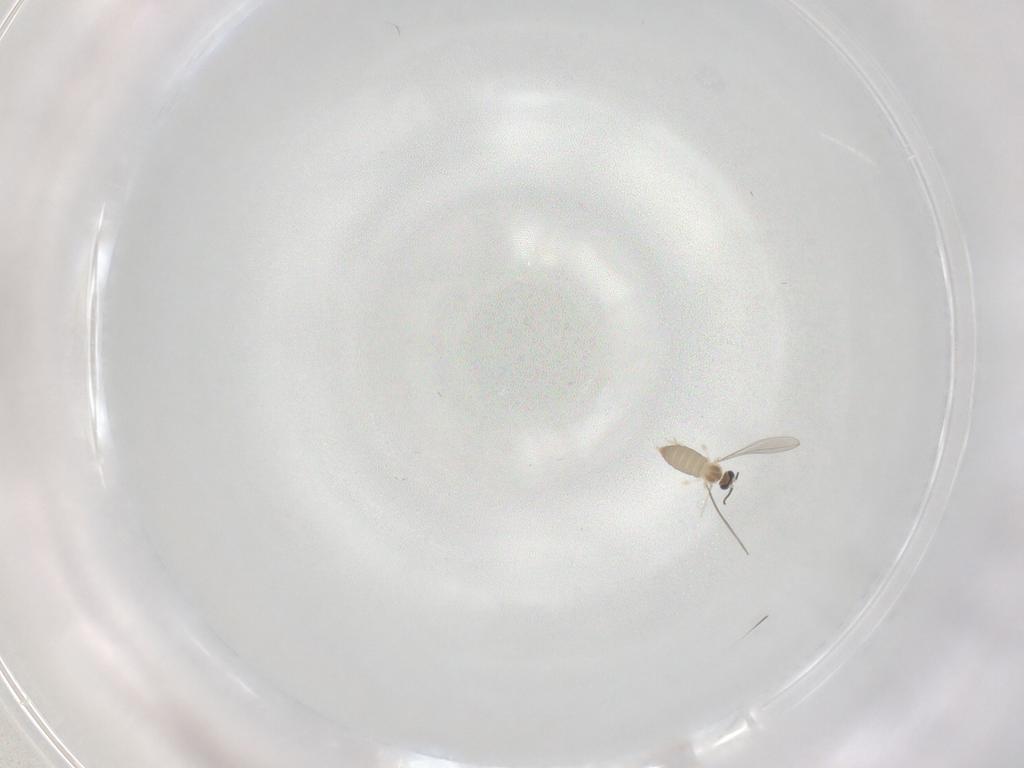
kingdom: Animalia
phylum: Arthropoda
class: Insecta
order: Diptera
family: Cecidomyiidae
